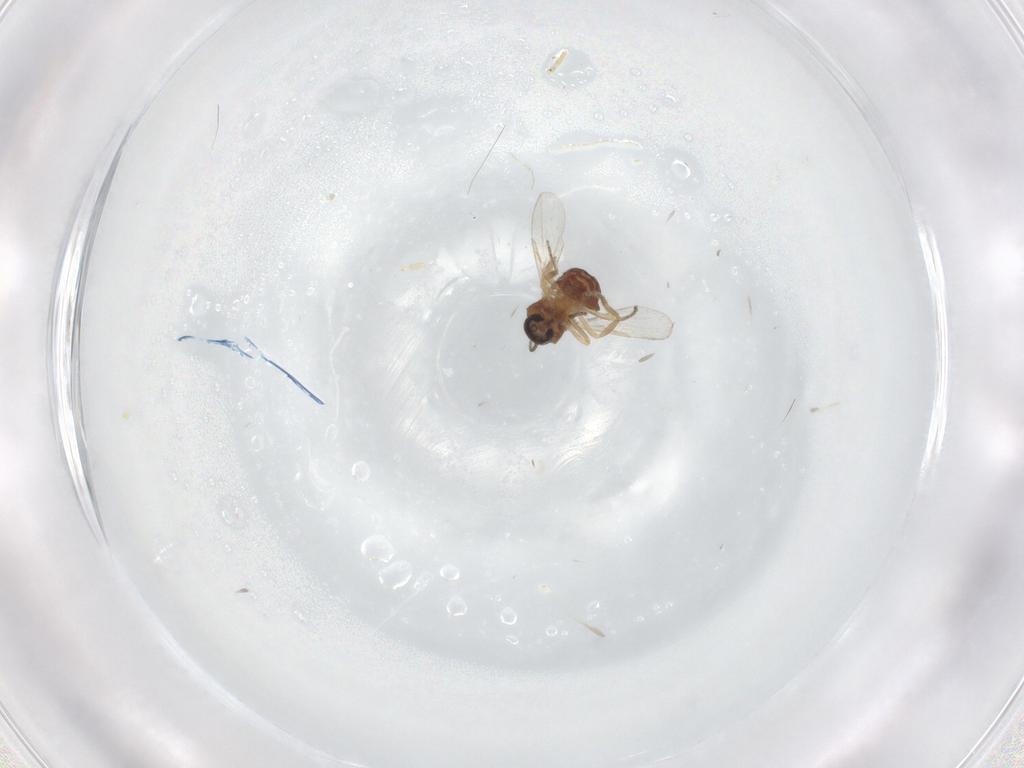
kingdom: Animalia
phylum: Arthropoda
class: Insecta
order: Diptera
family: Ceratopogonidae
